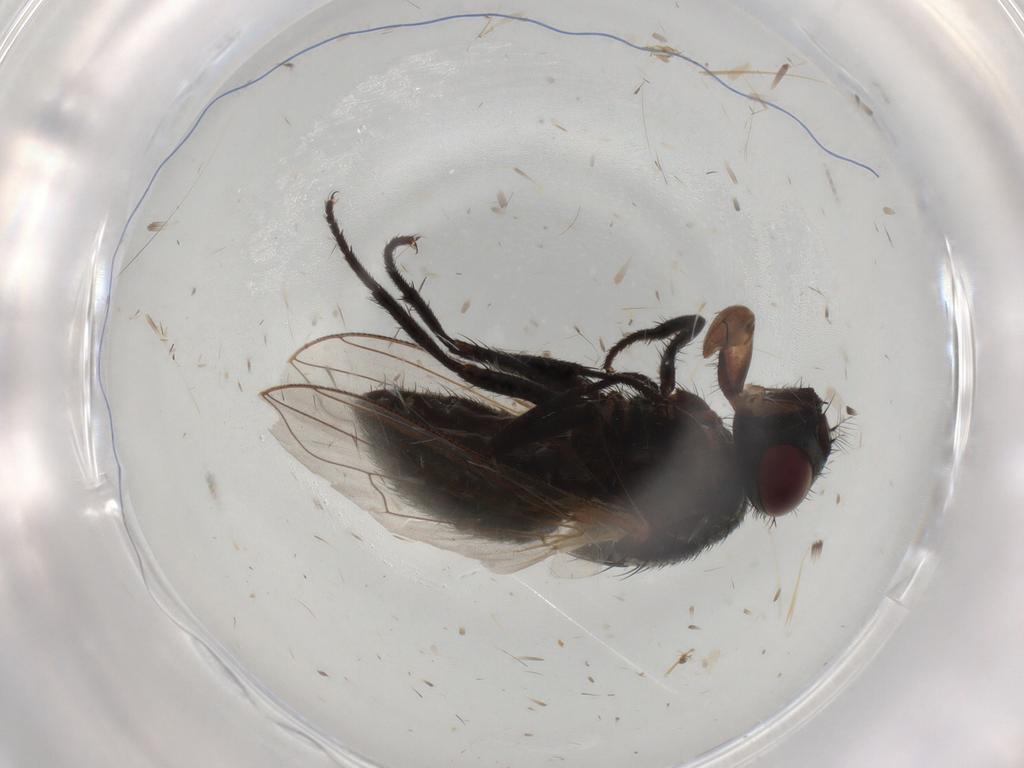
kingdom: Animalia
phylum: Arthropoda
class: Insecta
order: Diptera
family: Muscidae
